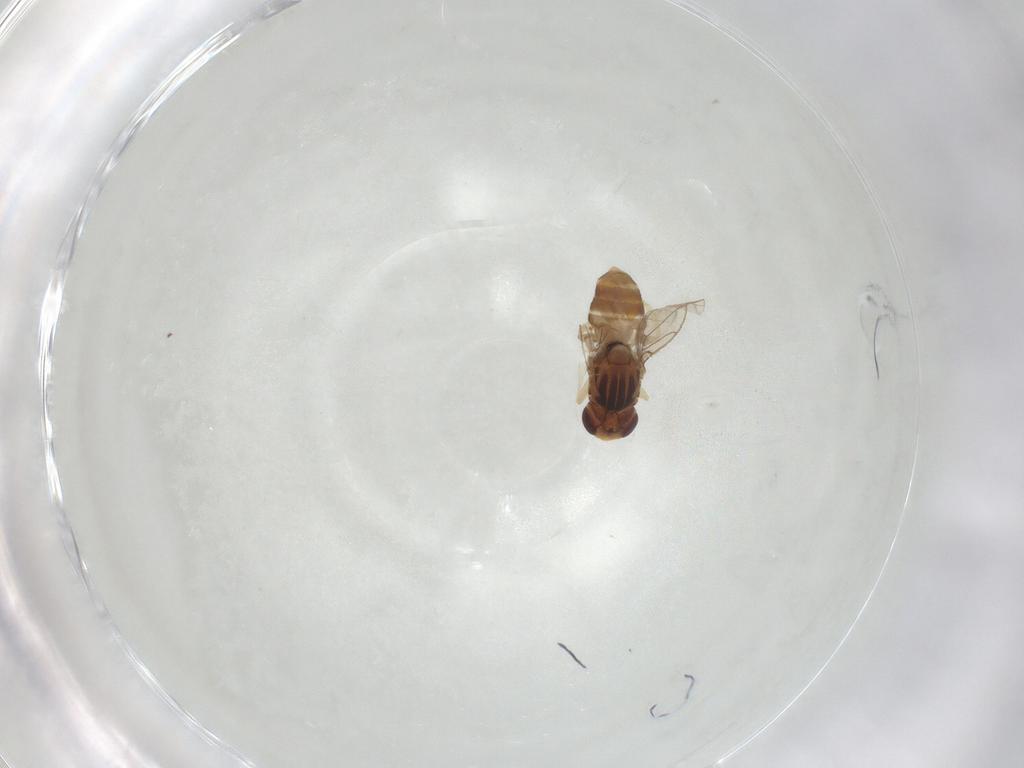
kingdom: Animalia
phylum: Arthropoda
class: Insecta
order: Diptera
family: Chloropidae
